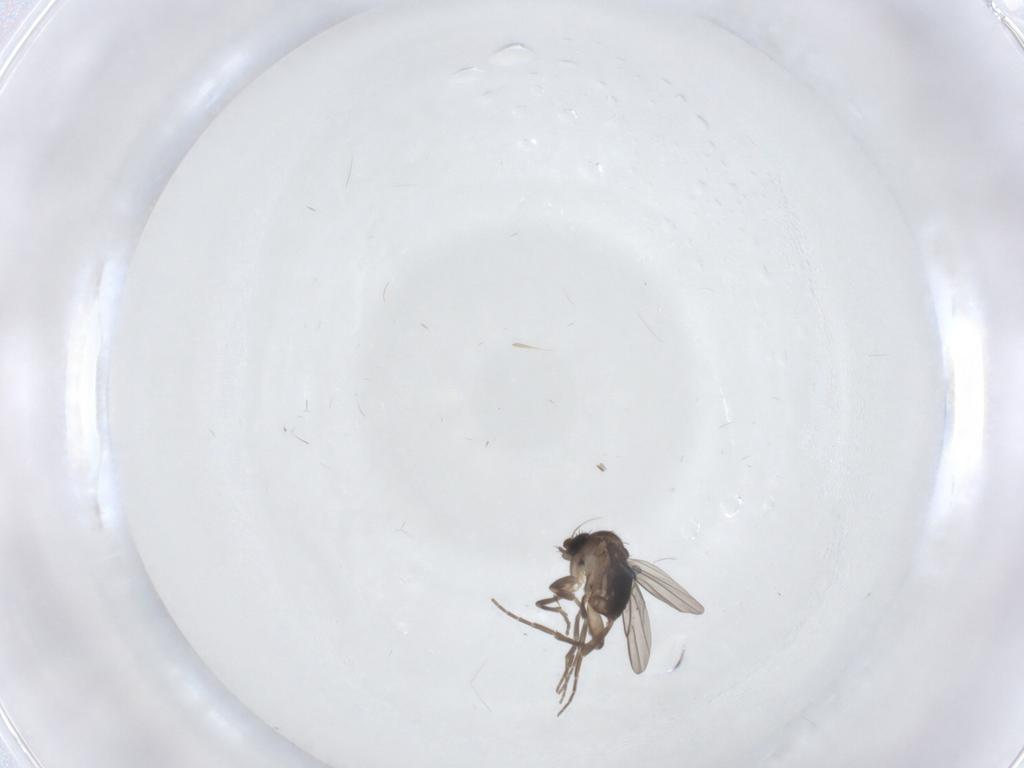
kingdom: Animalia
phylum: Arthropoda
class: Insecta
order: Diptera
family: Phoridae
